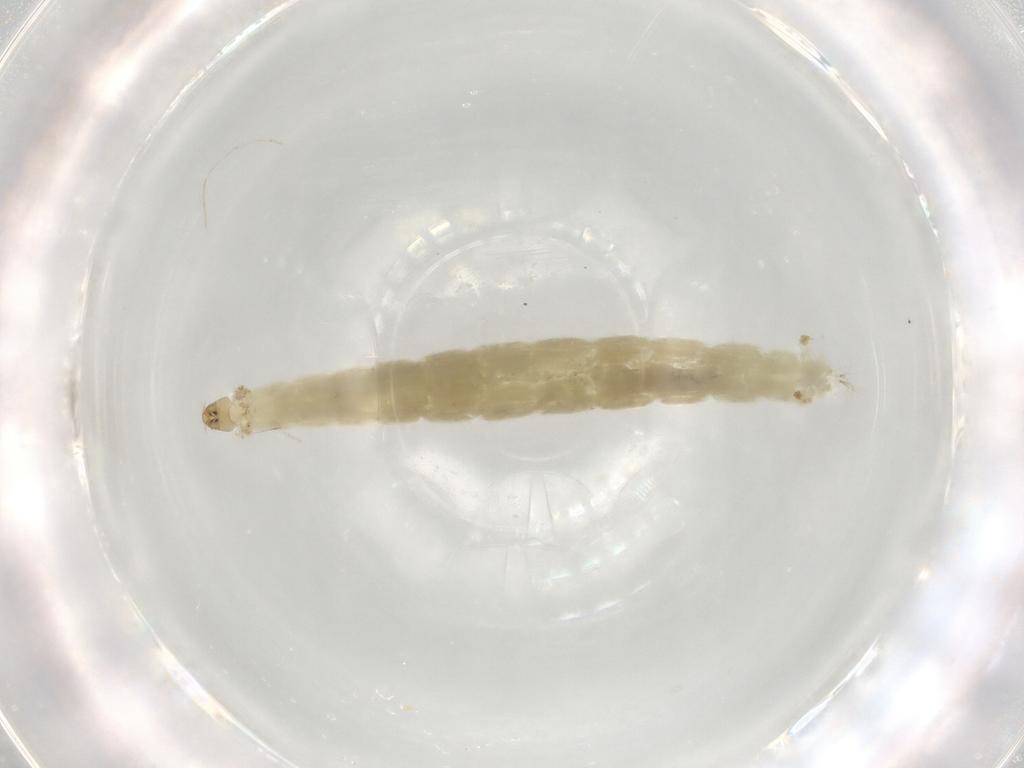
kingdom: Animalia
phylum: Arthropoda
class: Insecta
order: Diptera
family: Chironomidae
